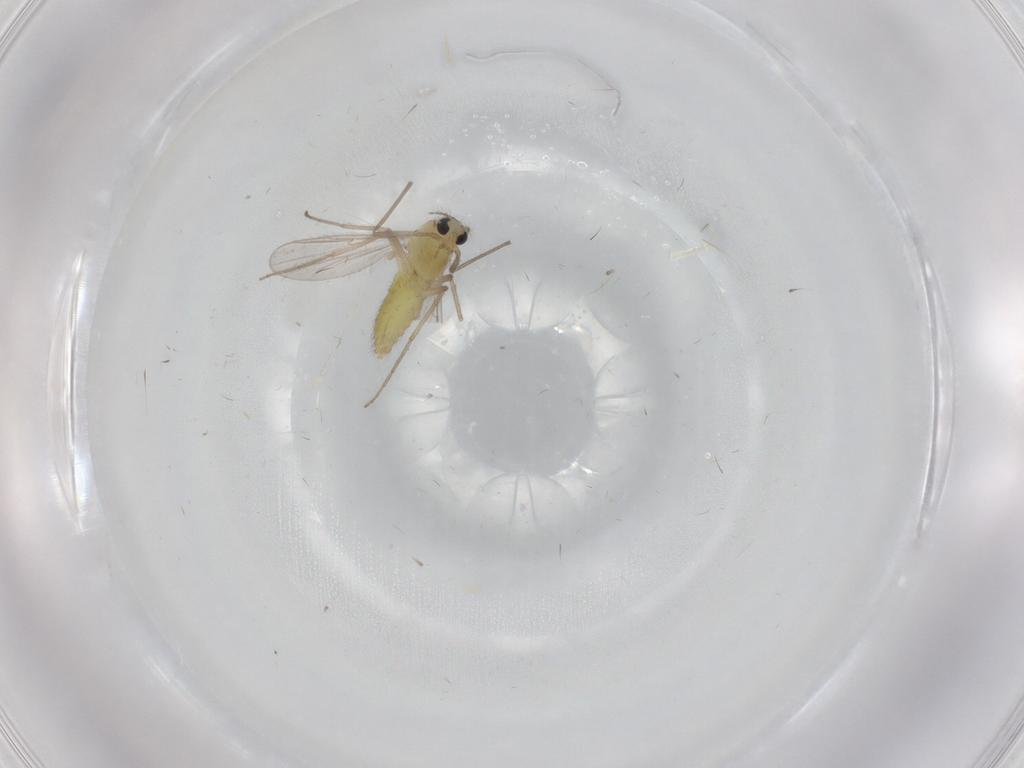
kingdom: Animalia
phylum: Arthropoda
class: Insecta
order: Diptera
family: Chironomidae
